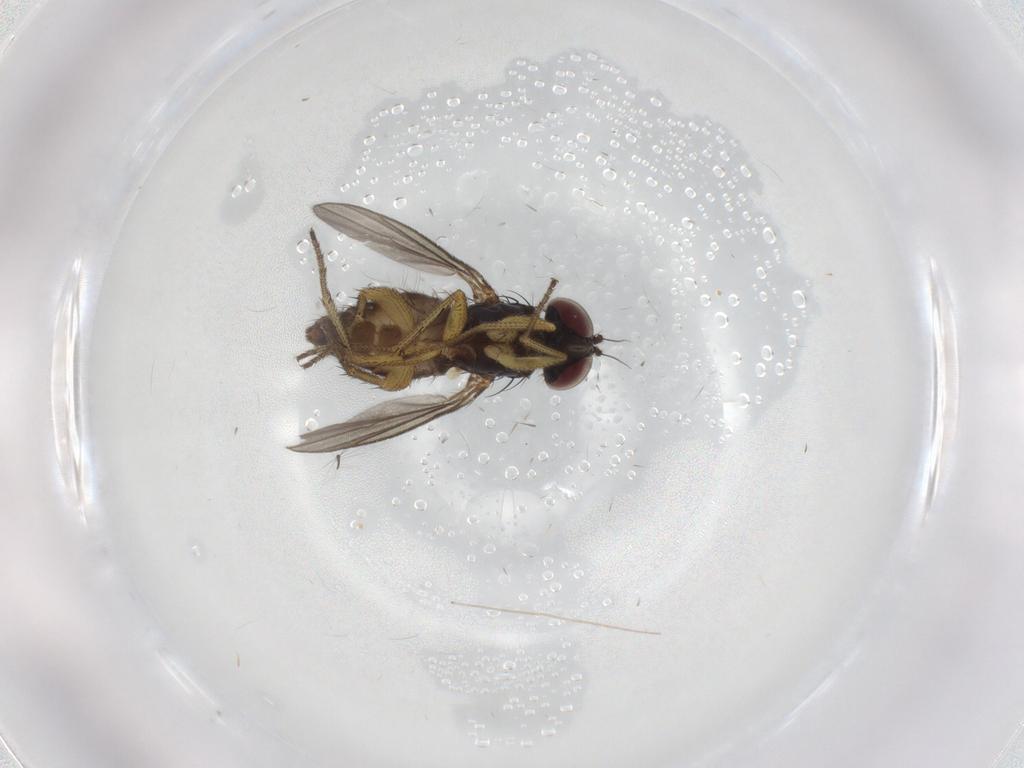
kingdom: Animalia
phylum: Arthropoda
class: Insecta
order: Diptera
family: Dolichopodidae
